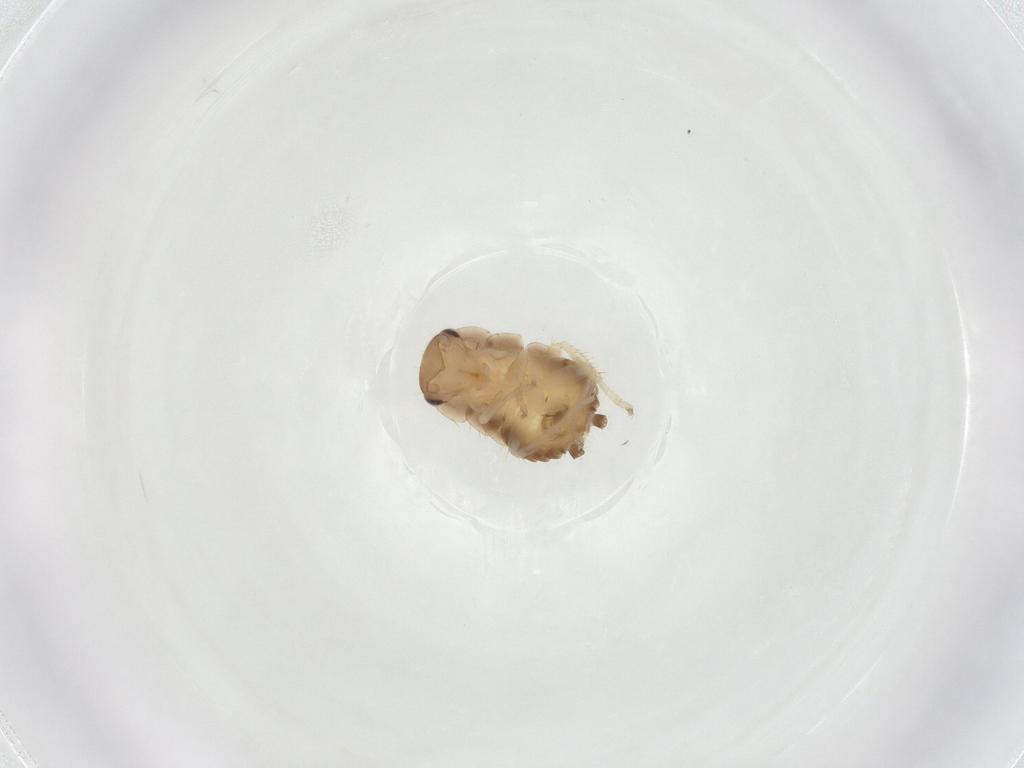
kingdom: Animalia
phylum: Arthropoda
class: Insecta
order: Blattodea
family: Ectobiidae
